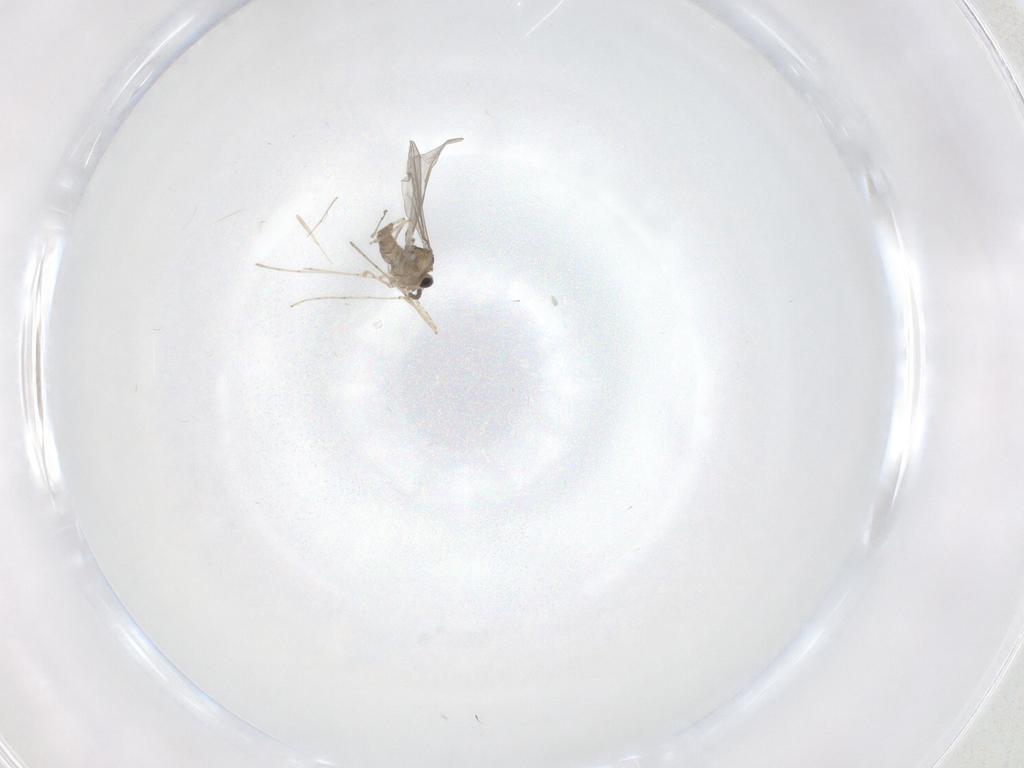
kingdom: Animalia
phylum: Arthropoda
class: Insecta
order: Diptera
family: Cecidomyiidae
